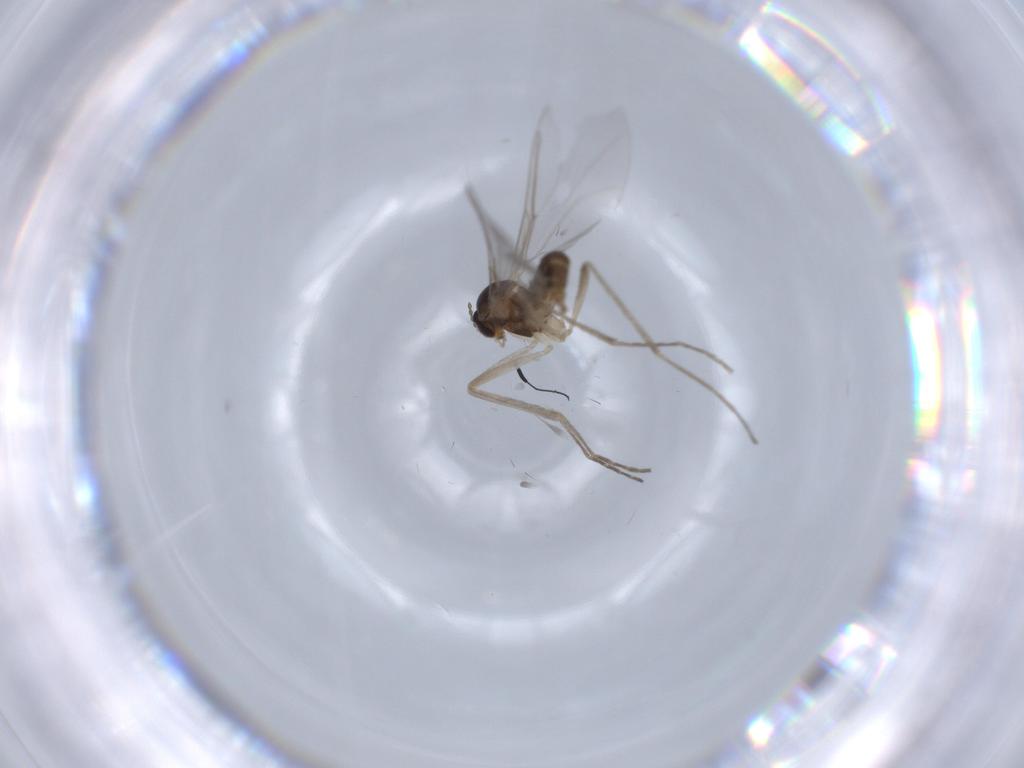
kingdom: Animalia
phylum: Arthropoda
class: Insecta
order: Diptera
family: Cecidomyiidae
